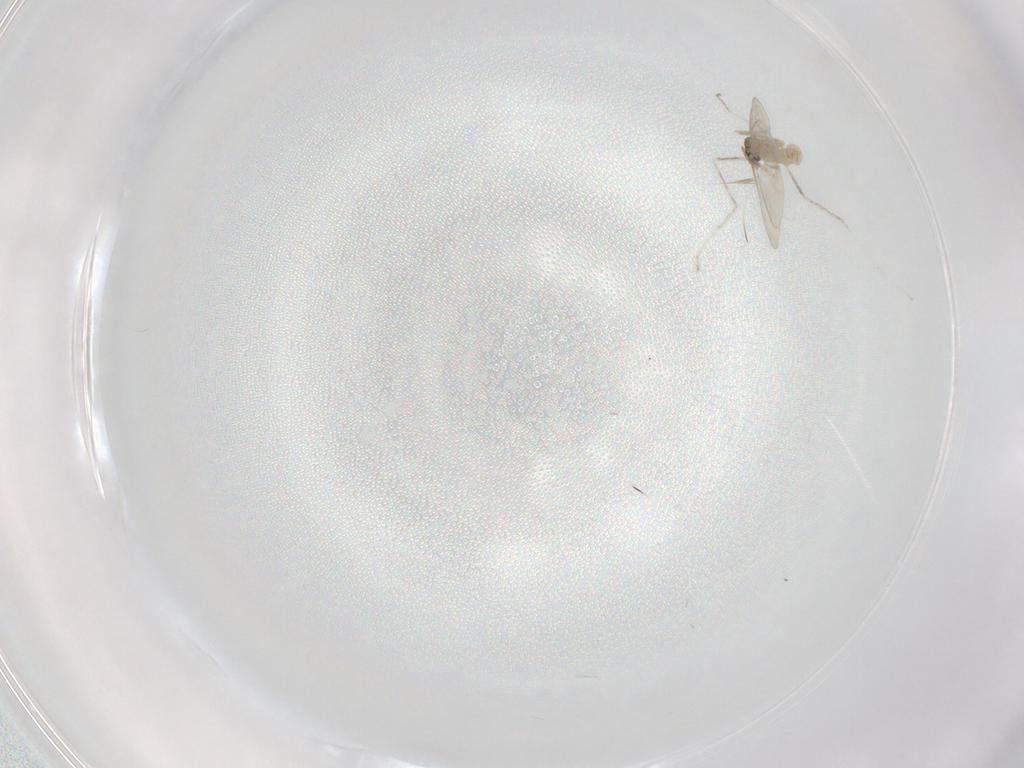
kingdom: Animalia
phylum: Arthropoda
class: Insecta
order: Diptera
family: Cecidomyiidae
